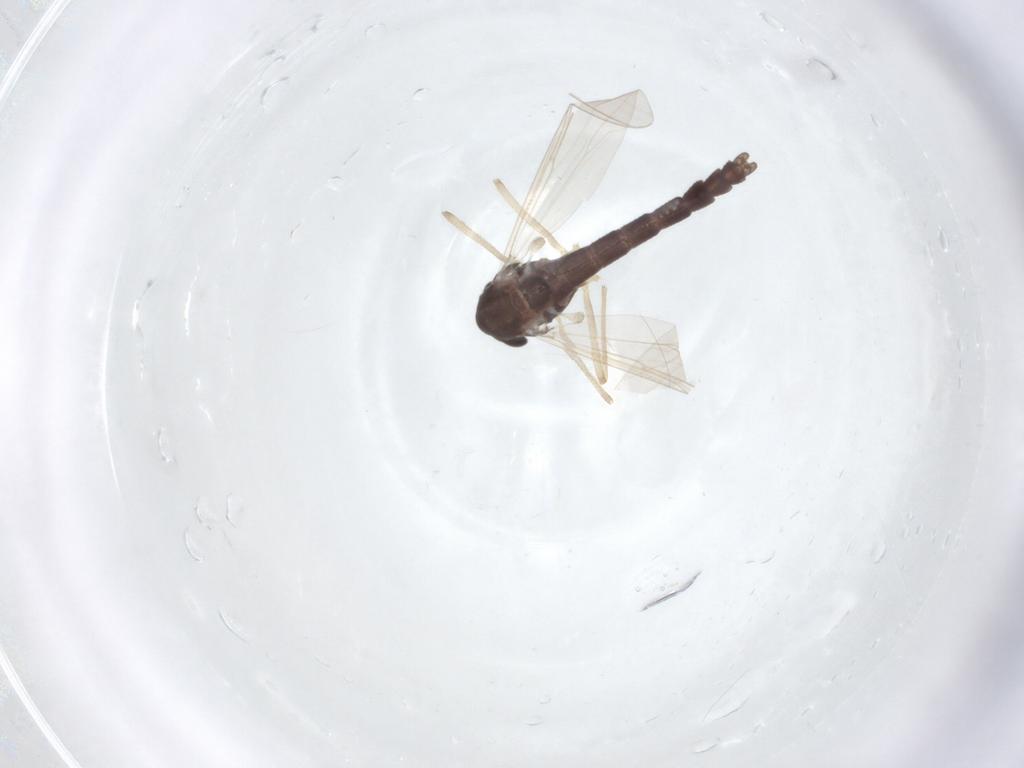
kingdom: Animalia
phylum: Arthropoda
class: Insecta
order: Diptera
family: Chironomidae
